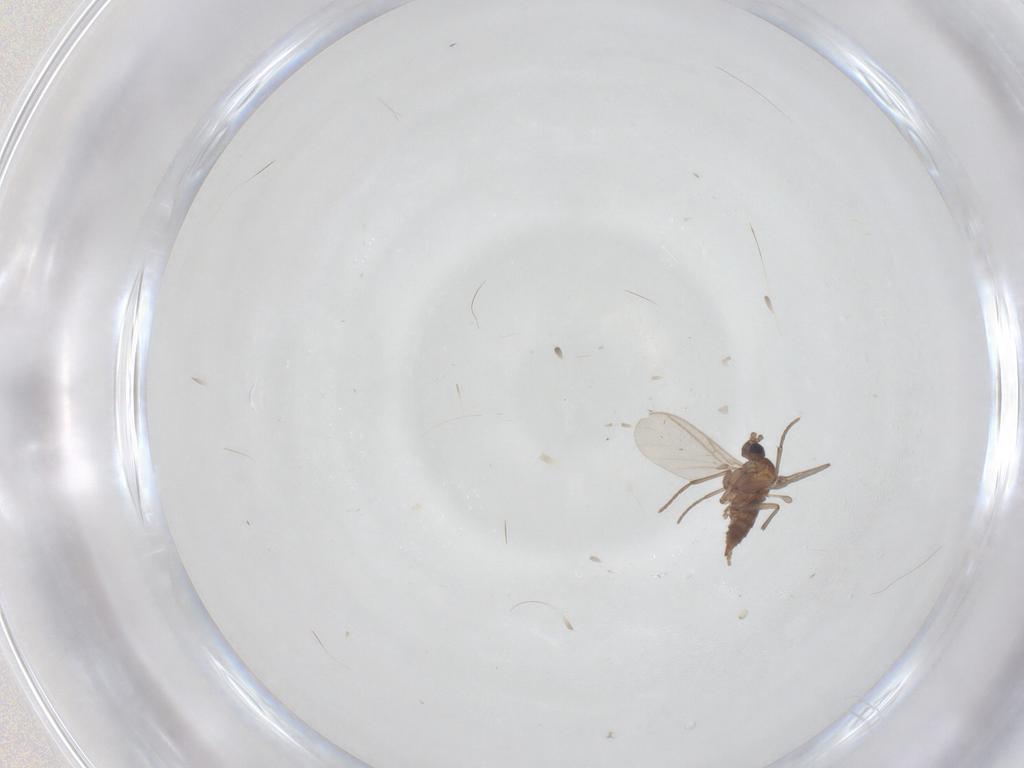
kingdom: Animalia
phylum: Arthropoda
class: Insecta
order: Diptera
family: Sciaridae
